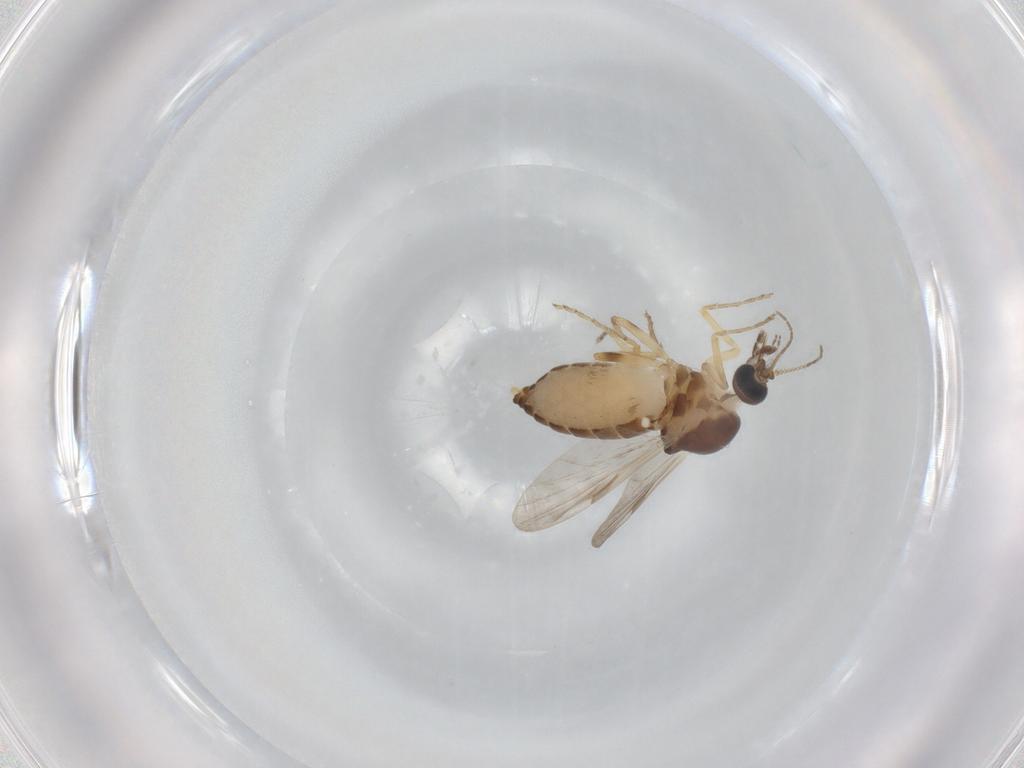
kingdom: Animalia
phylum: Arthropoda
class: Insecta
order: Diptera
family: Ceratopogonidae
